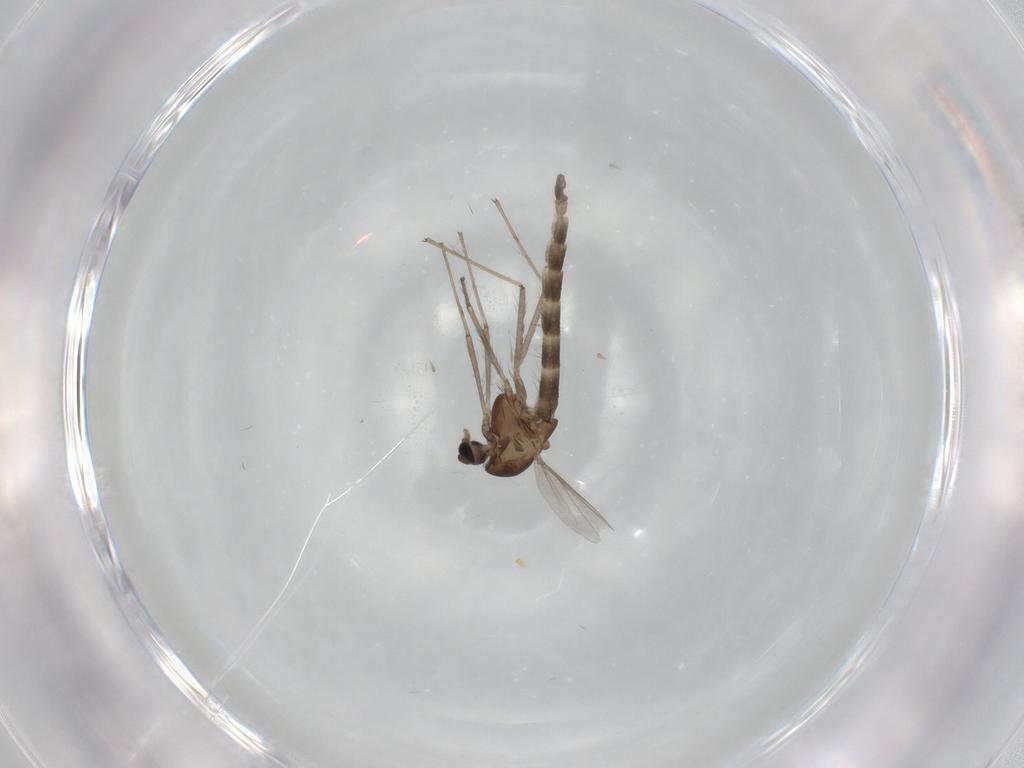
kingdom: Animalia
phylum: Arthropoda
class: Insecta
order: Diptera
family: Chironomidae
